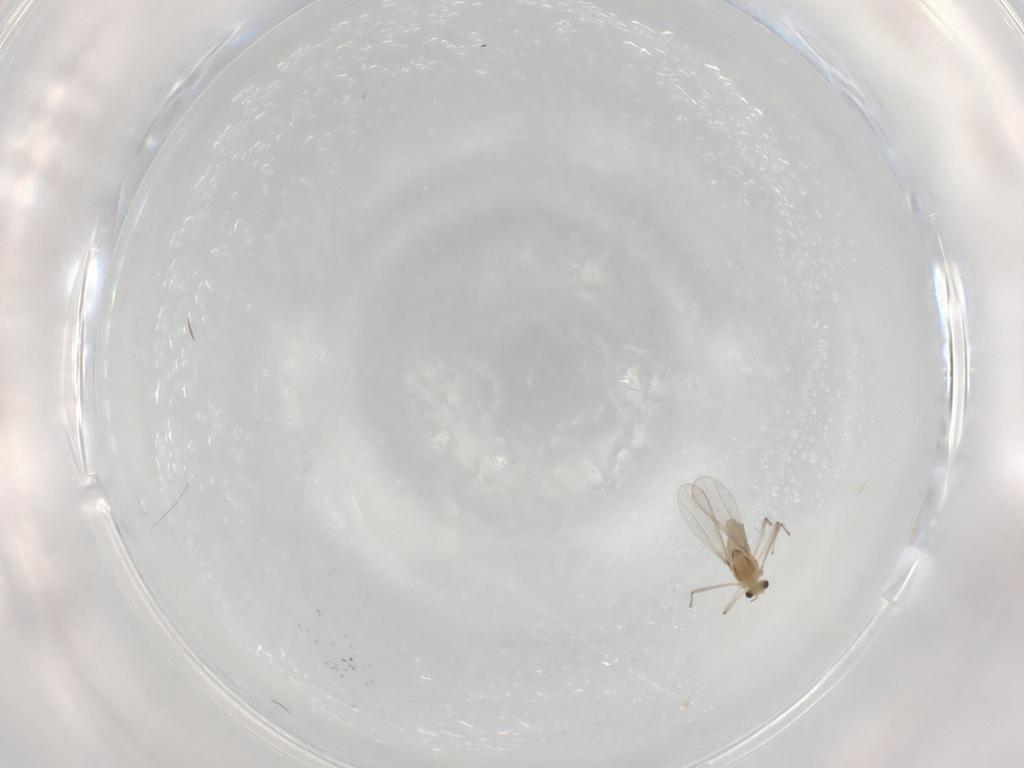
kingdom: Animalia
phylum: Arthropoda
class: Insecta
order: Diptera
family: Chironomidae
